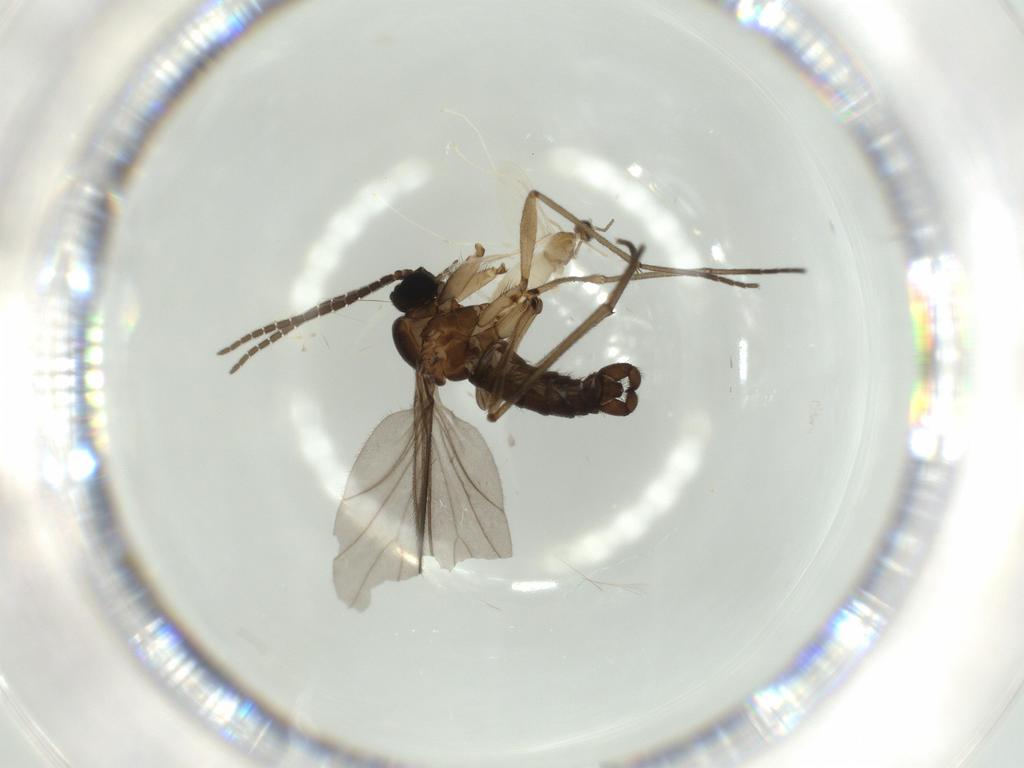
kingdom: Animalia
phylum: Arthropoda
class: Insecta
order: Diptera
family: Sciaridae
